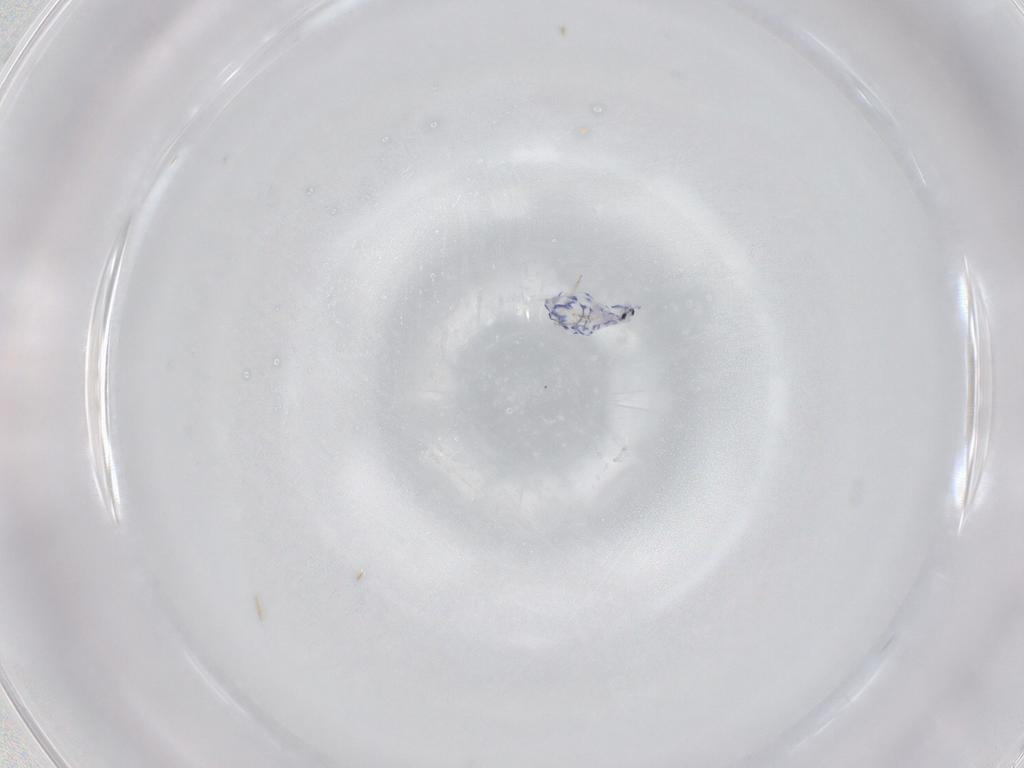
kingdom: Animalia
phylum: Arthropoda
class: Collembola
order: Entomobryomorpha
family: Entomobryidae
